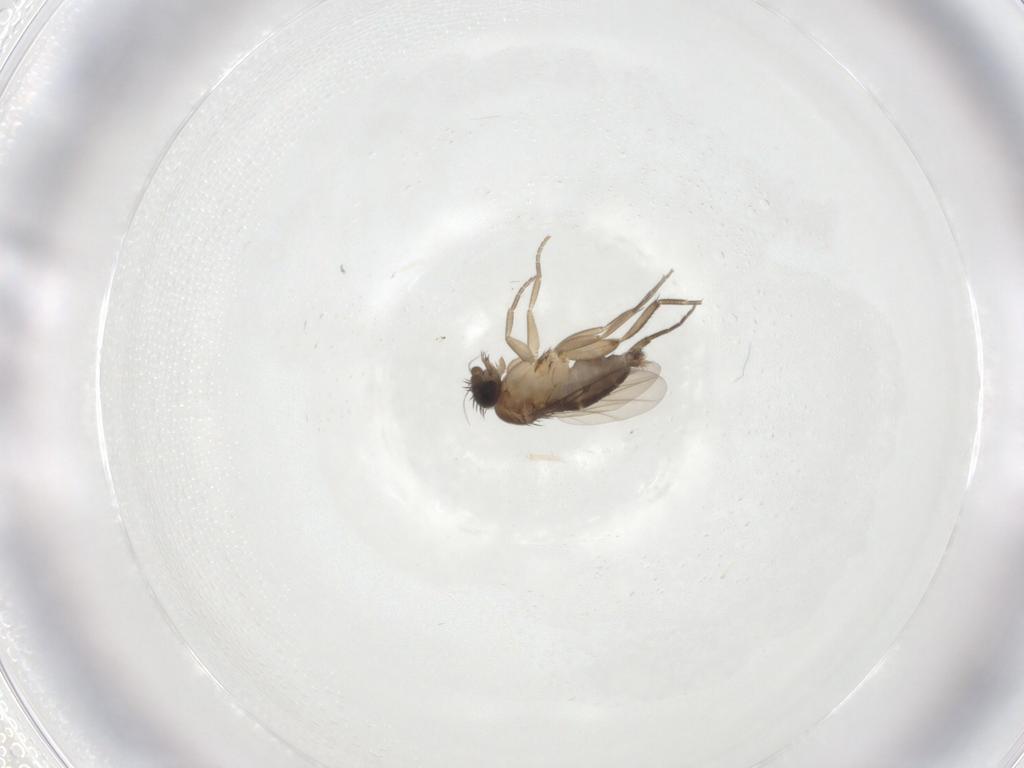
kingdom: Animalia
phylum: Arthropoda
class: Insecta
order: Diptera
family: Phoridae
